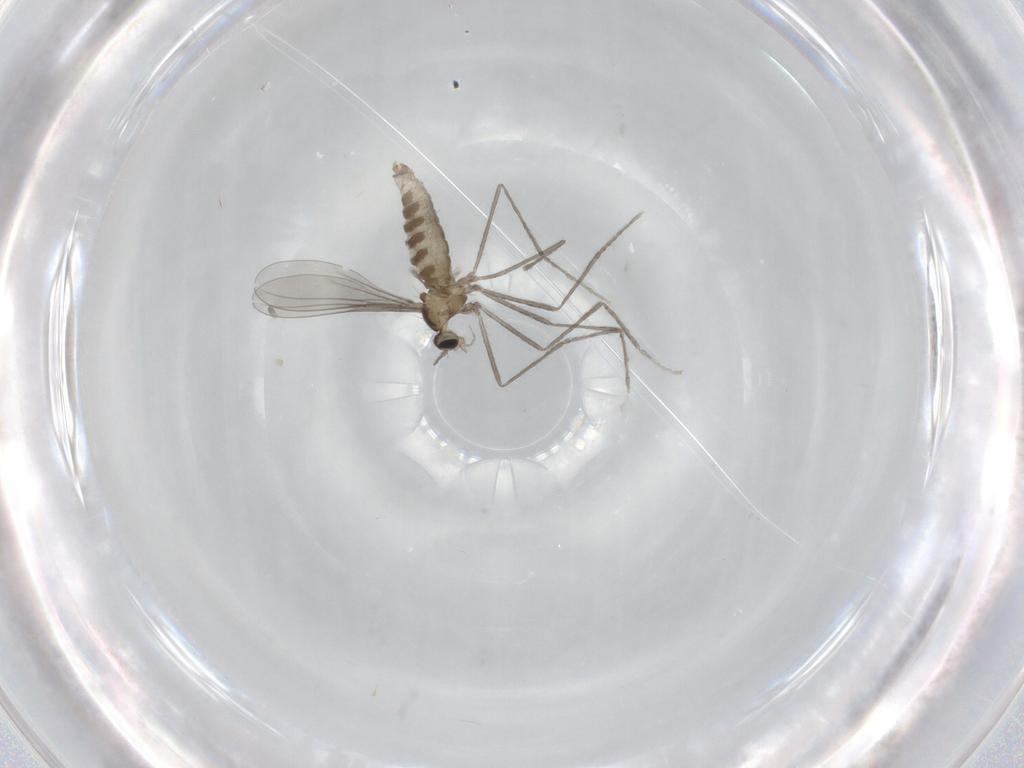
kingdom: Animalia
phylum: Arthropoda
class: Insecta
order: Diptera
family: Cecidomyiidae
